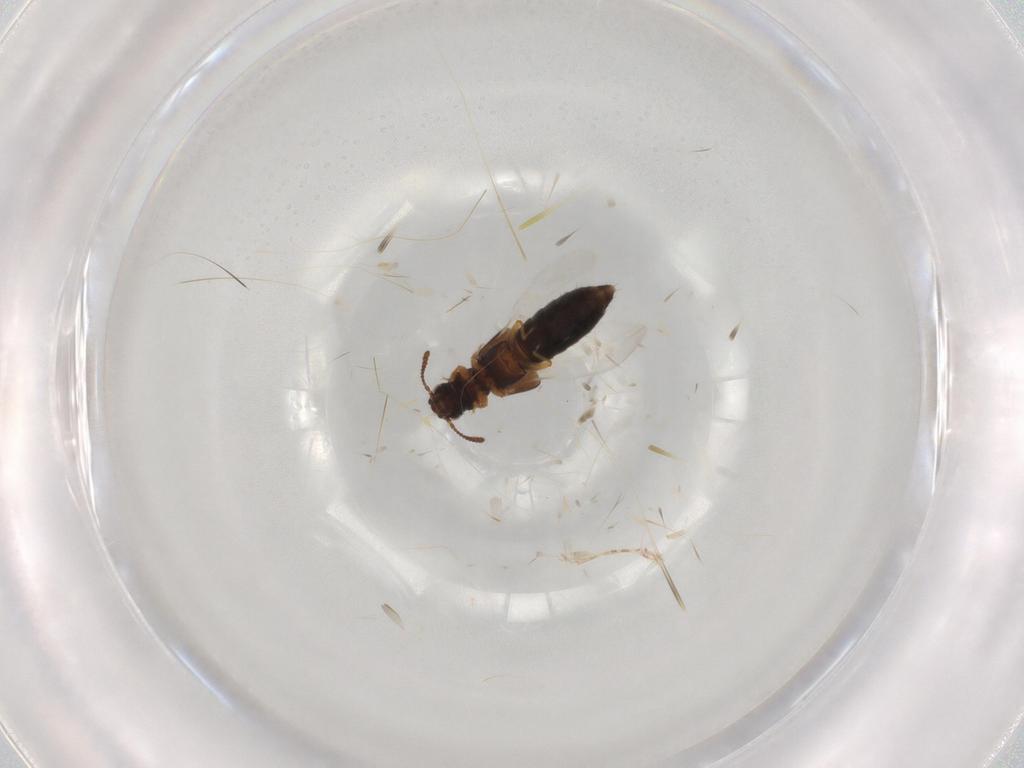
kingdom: Animalia
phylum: Arthropoda
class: Insecta
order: Coleoptera
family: Staphylinidae
